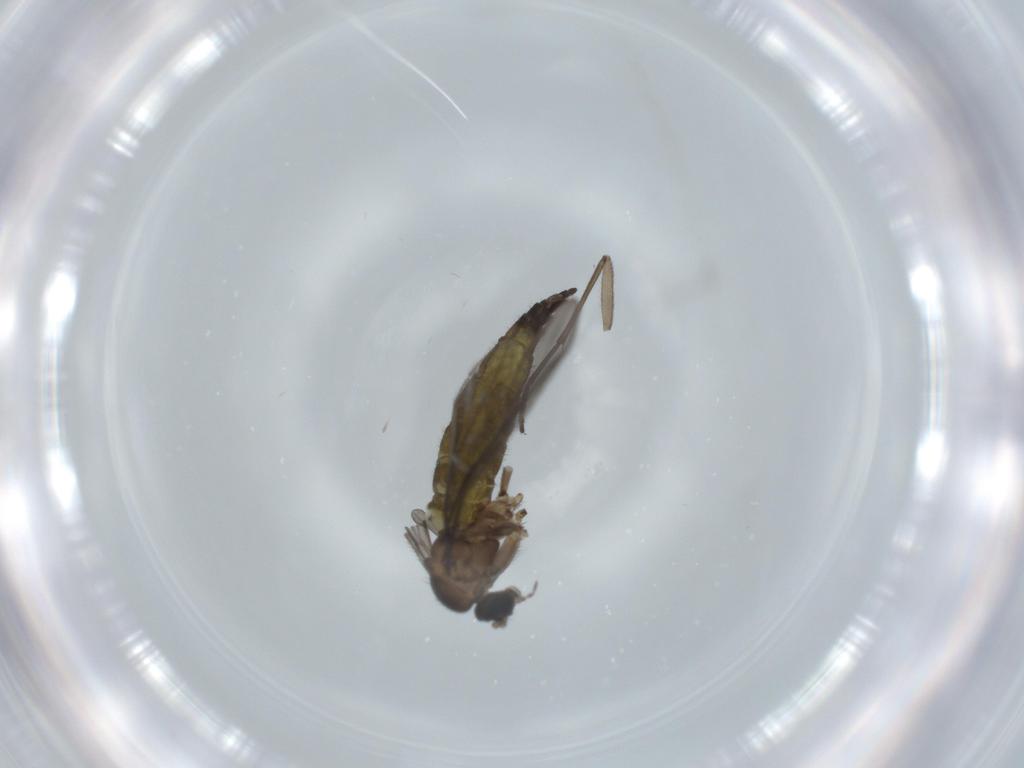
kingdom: Animalia
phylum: Arthropoda
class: Insecta
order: Diptera
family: Sciaridae
